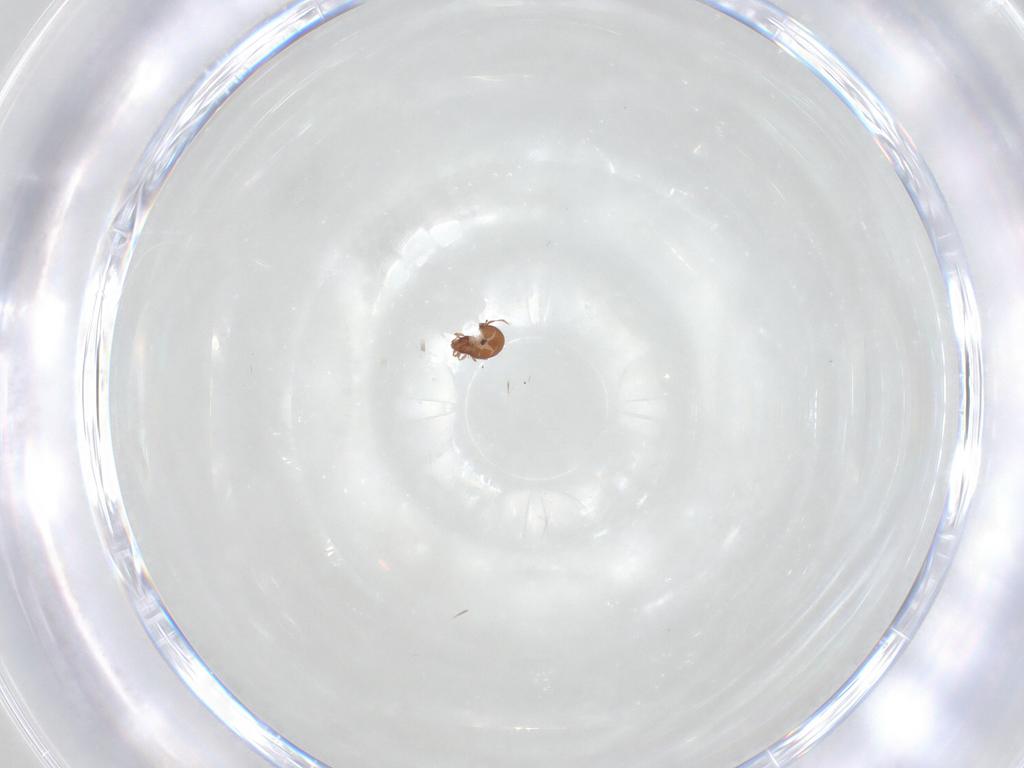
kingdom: Animalia
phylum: Arthropoda
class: Arachnida
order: Sarcoptiformes
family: Oribatulidae
